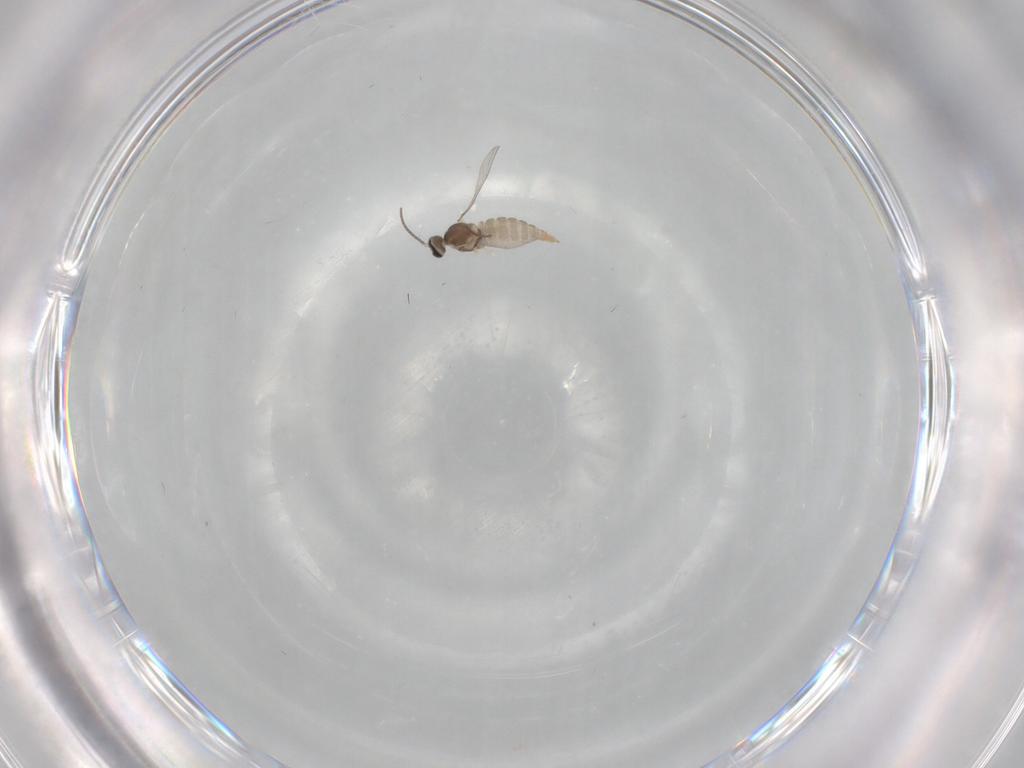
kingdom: Animalia
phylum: Arthropoda
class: Insecta
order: Diptera
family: Cecidomyiidae
